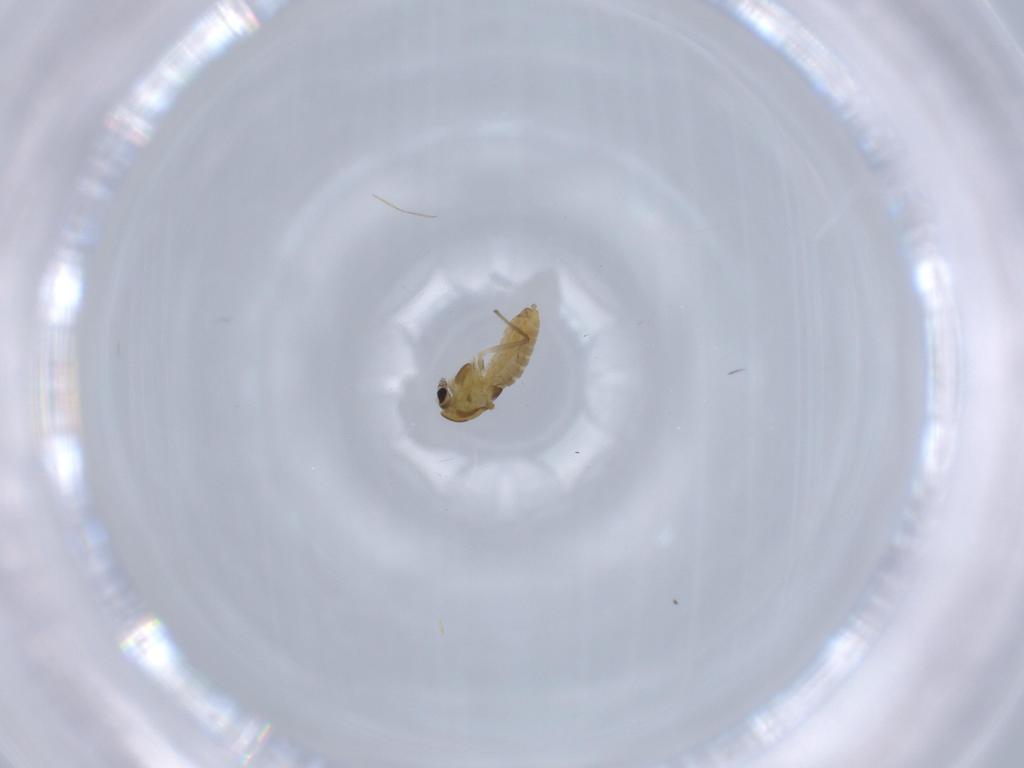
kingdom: Animalia
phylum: Arthropoda
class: Insecta
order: Diptera
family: Chironomidae
